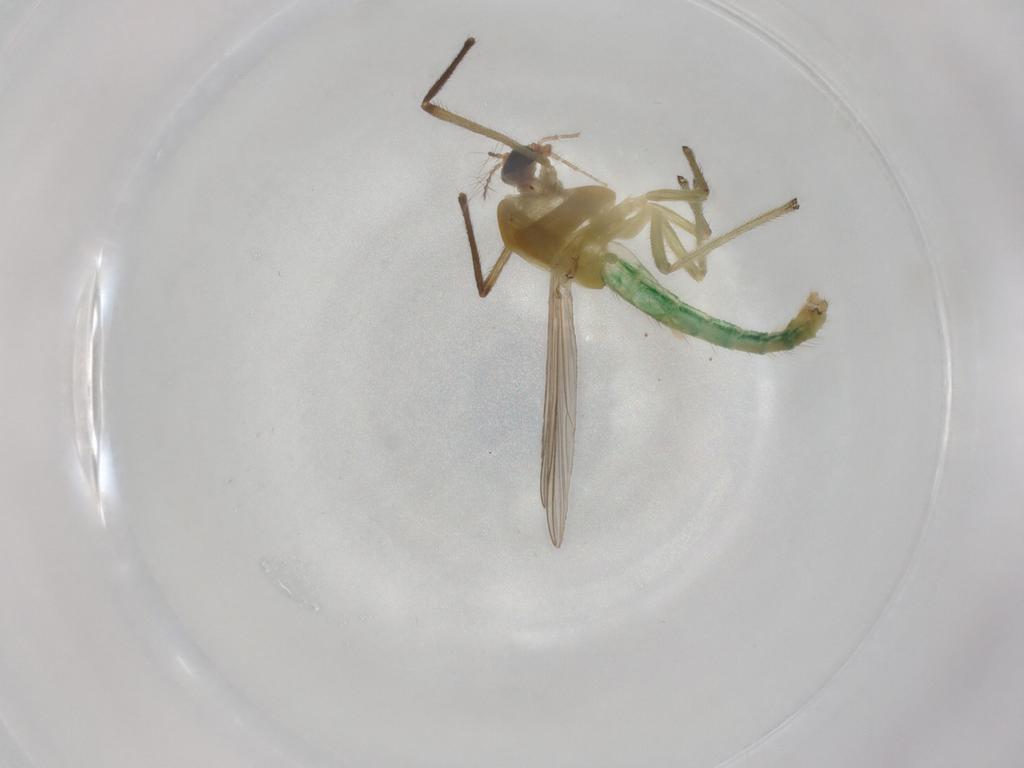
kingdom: Animalia
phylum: Arthropoda
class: Insecta
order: Diptera
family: Chironomidae
